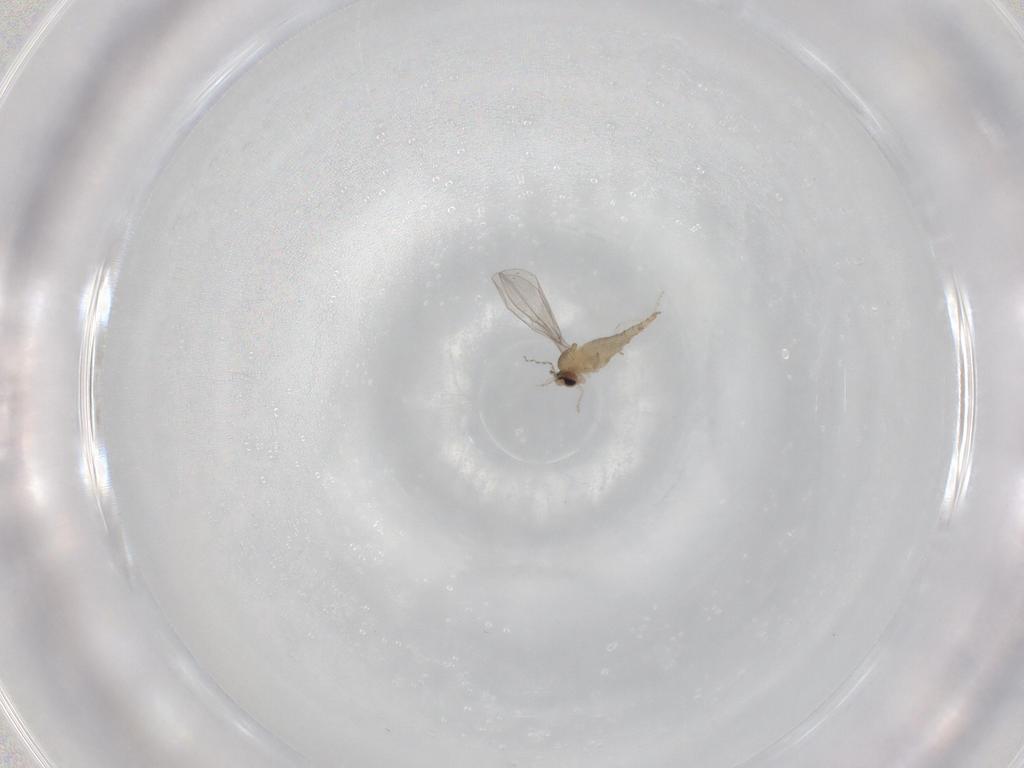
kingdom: Animalia
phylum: Arthropoda
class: Insecta
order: Diptera
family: Cecidomyiidae
